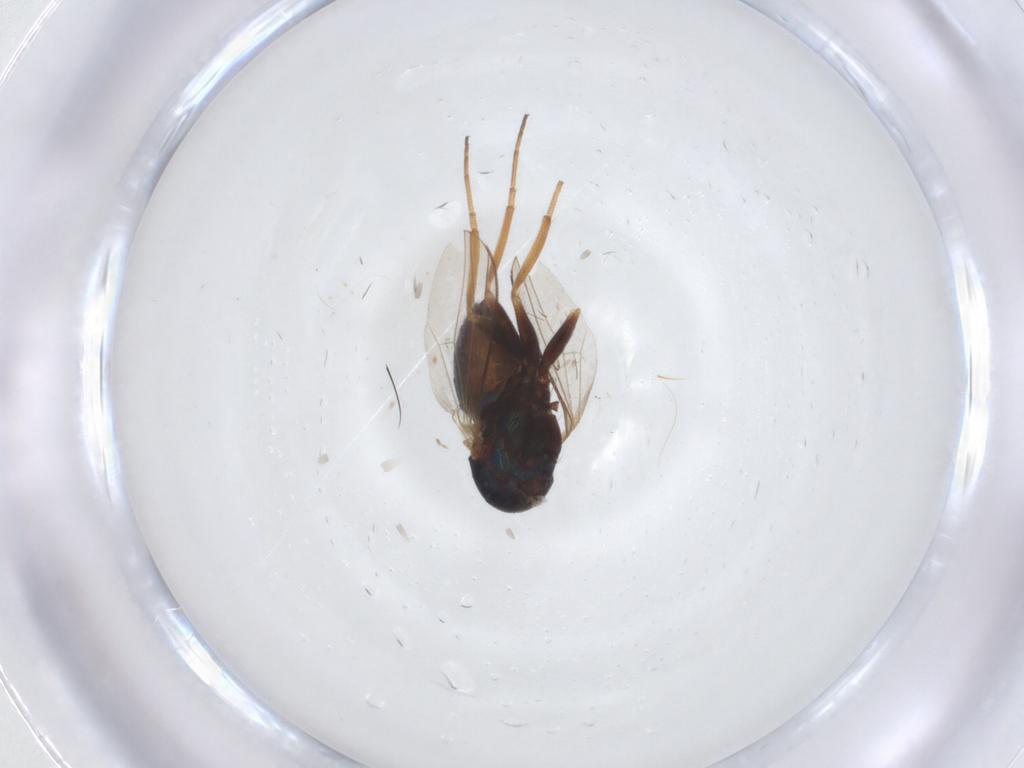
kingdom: Animalia
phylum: Arthropoda
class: Insecta
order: Diptera
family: Dolichopodidae
